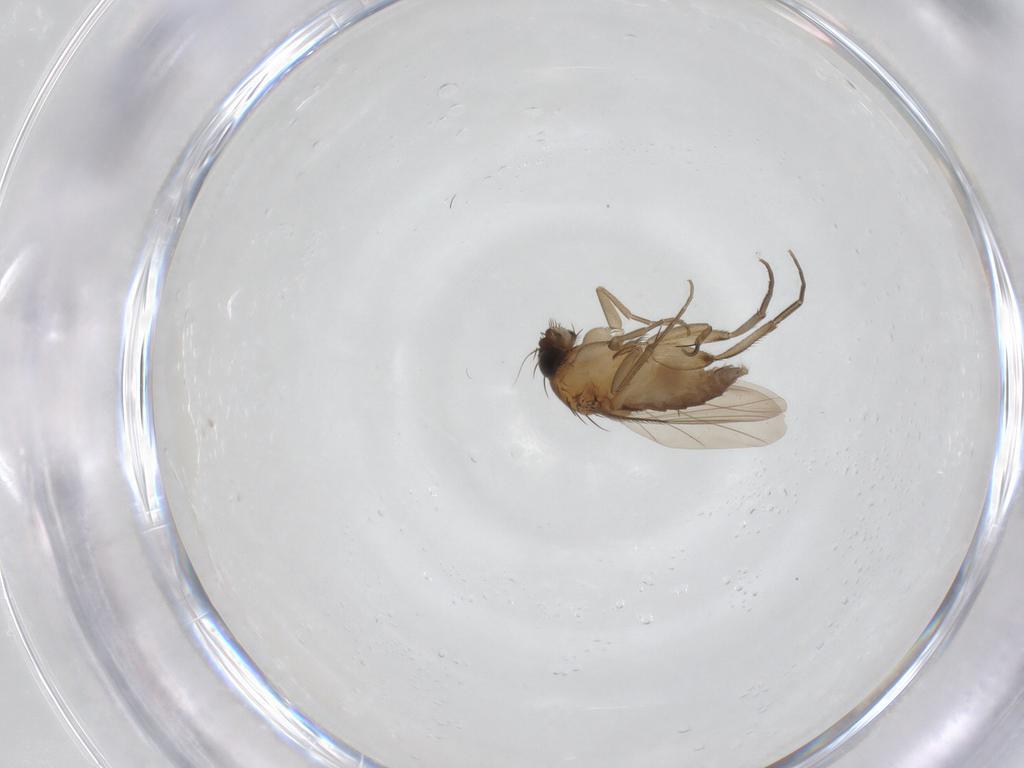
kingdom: Animalia
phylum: Arthropoda
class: Insecta
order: Diptera
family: Phoridae
